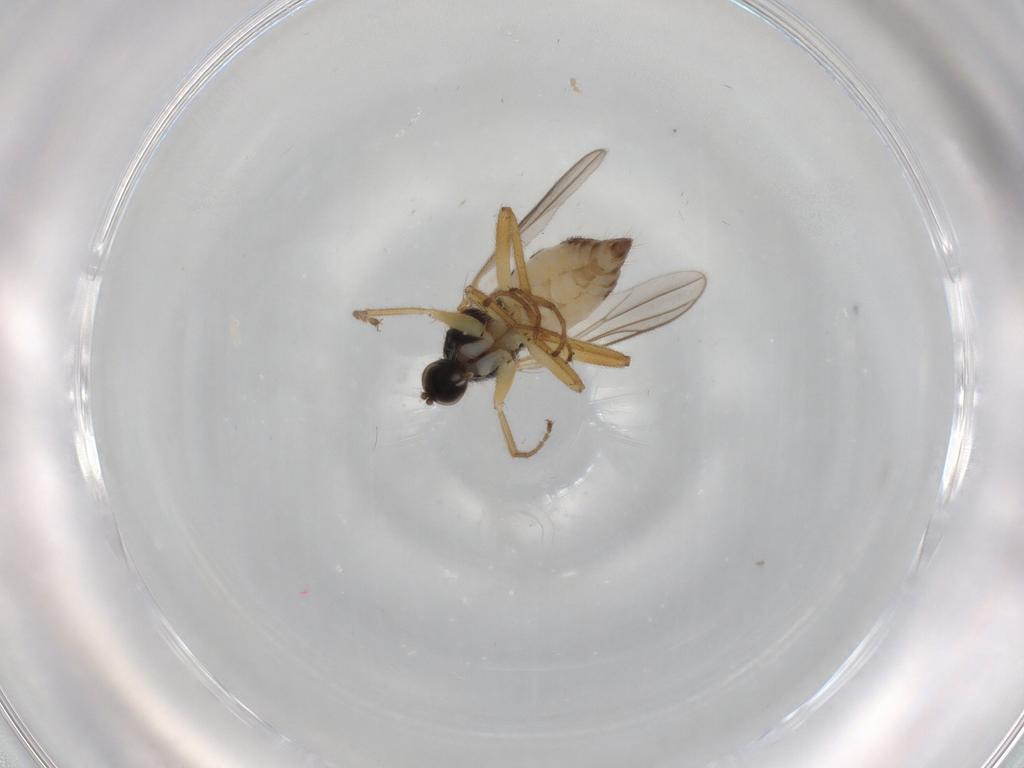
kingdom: Animalia
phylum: Arthropoda
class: Insecta
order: Diptera
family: Hybotidae
